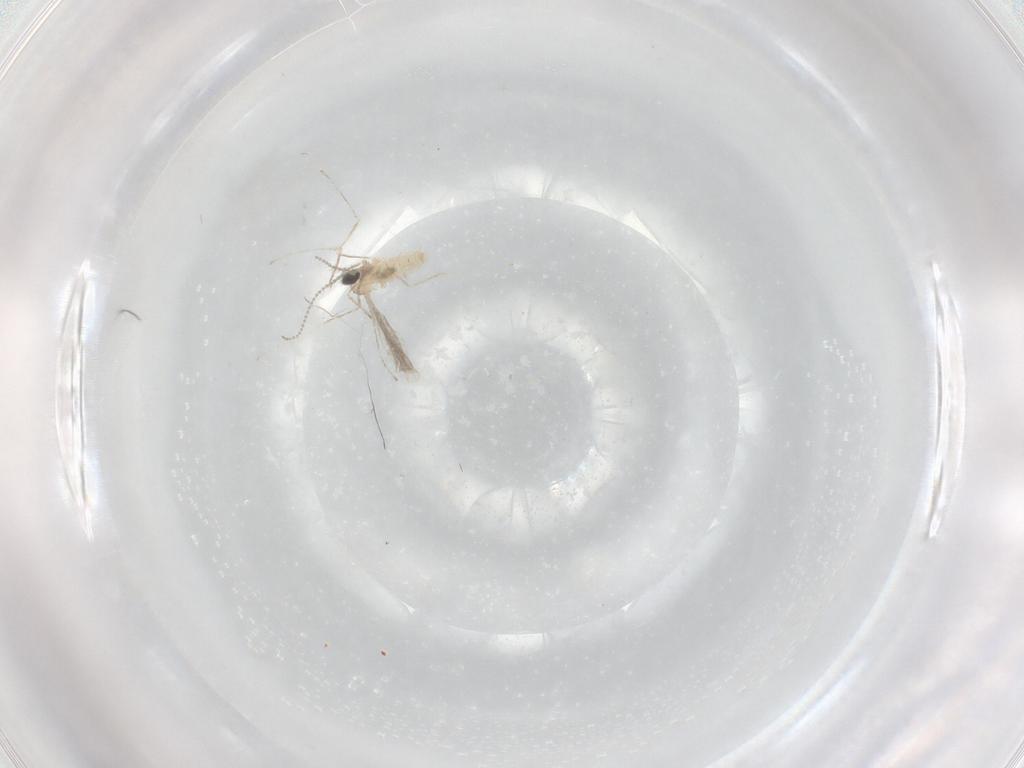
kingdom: Animalia
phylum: Arthropoda
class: Insecta
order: Diptera
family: Cecidomyiidae
